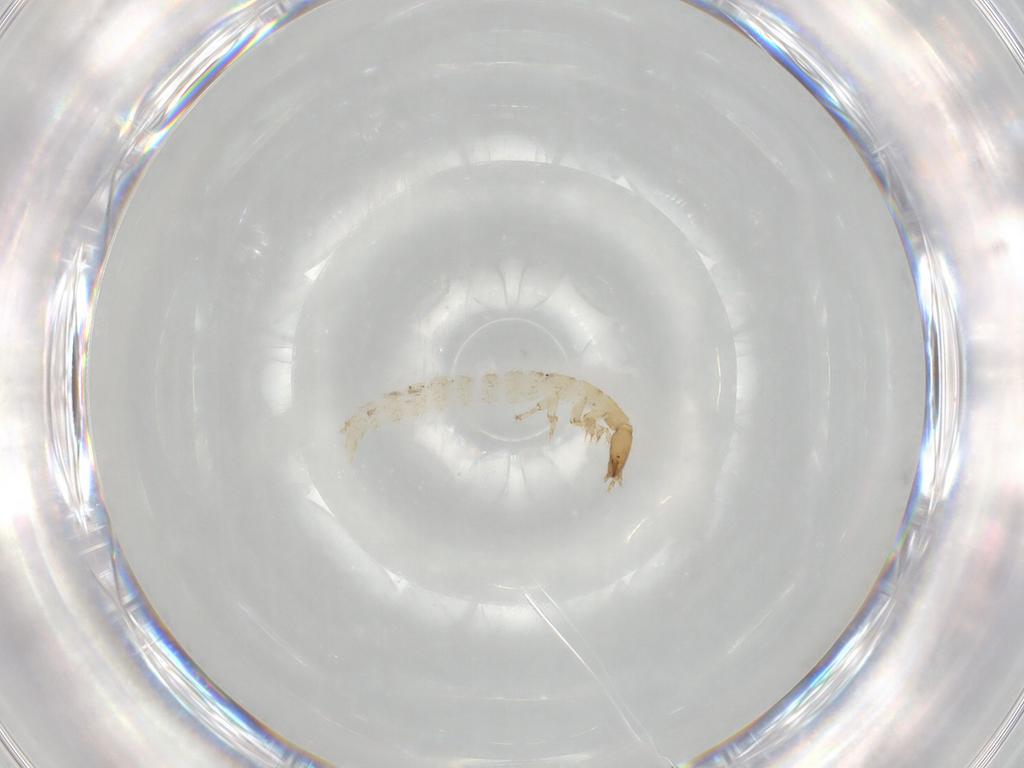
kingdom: Animalia
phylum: Arthropoda
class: Insecta
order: Coleoptera
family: Staphylinidae
